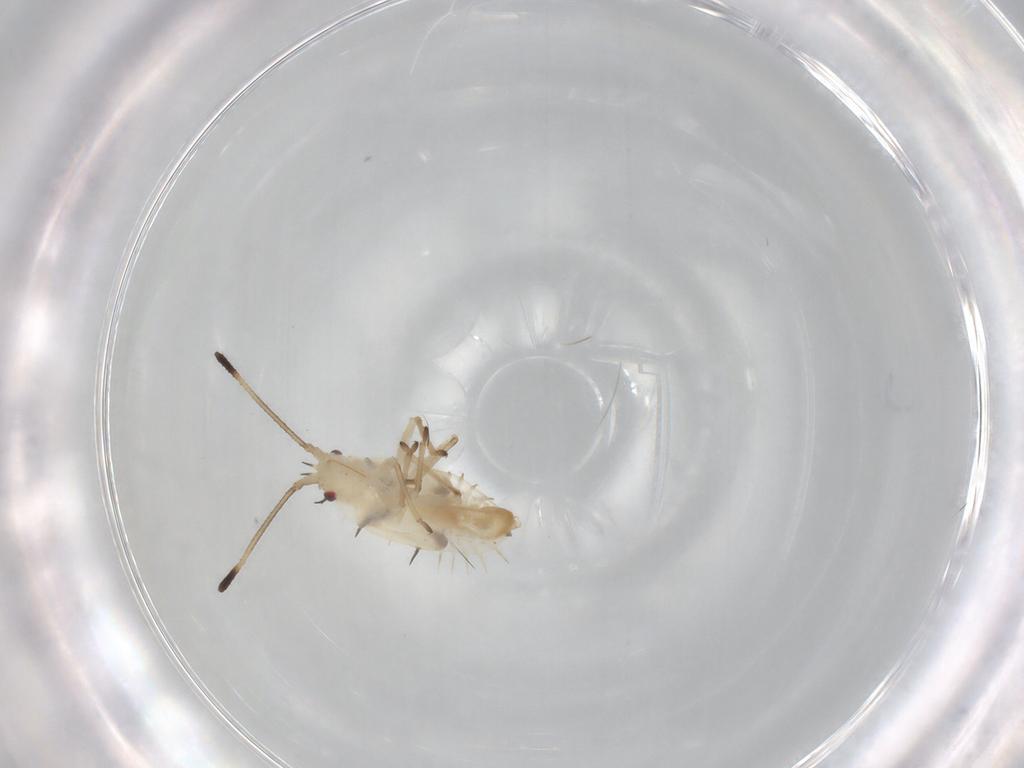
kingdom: Animalia
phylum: Arthropoda
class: Insecta
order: Hemiptera
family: Tingidae
